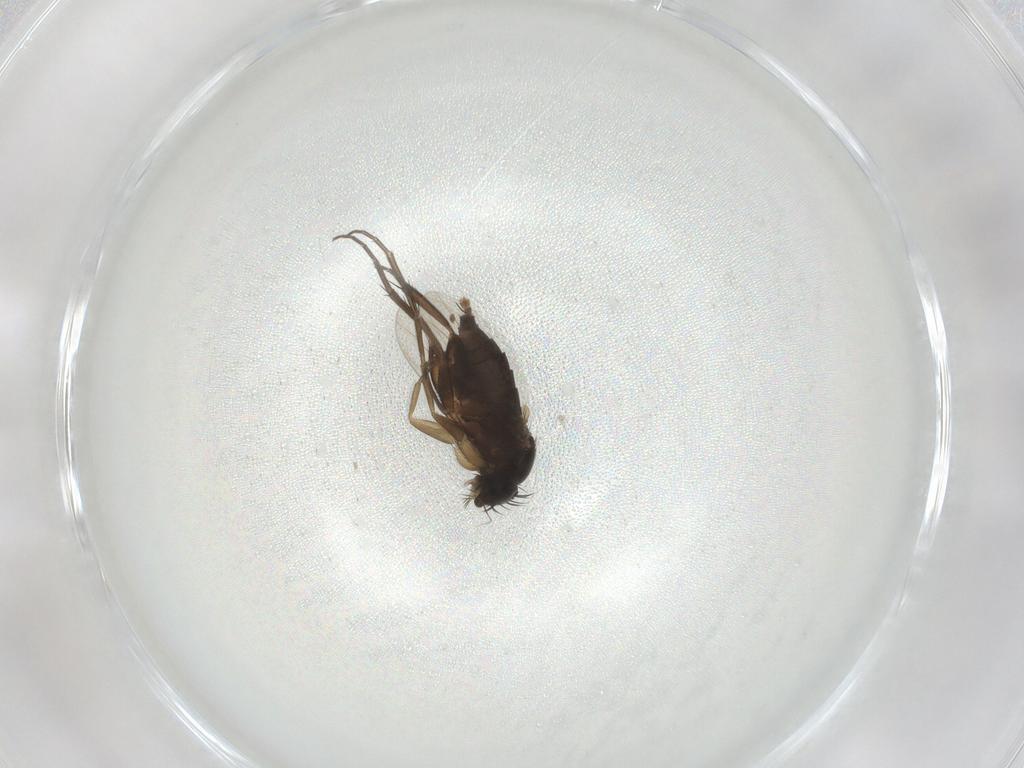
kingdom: Animalia
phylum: Arthropoda
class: Insecta
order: Diptera
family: Phoridae
